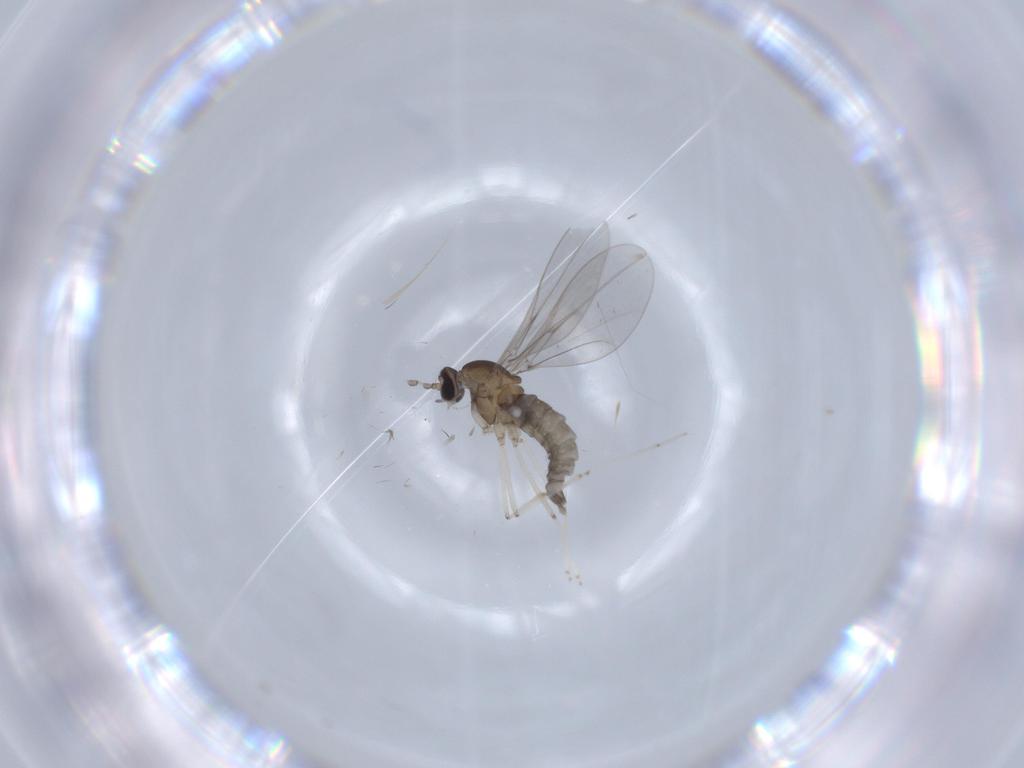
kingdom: Animalia
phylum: Arthropoda
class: Insecta
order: Diptera
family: Cecidomyiidae
